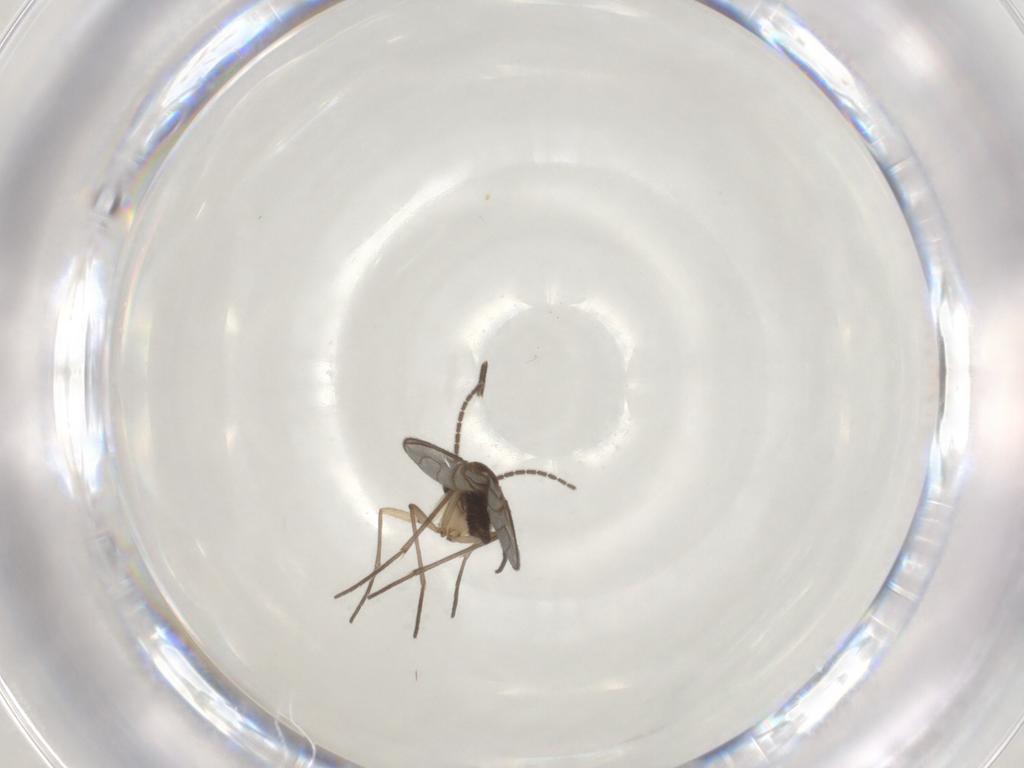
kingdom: Animalia
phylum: Arthropoda
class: Insecta
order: Diptera
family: Sciaridae
